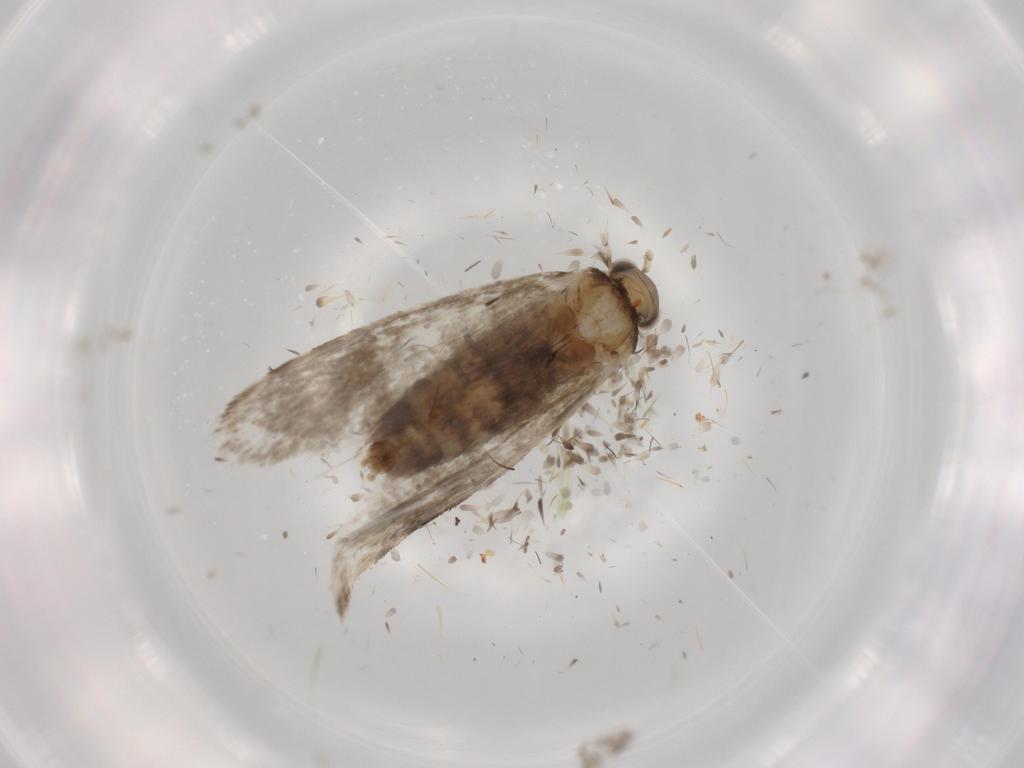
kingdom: Animalia
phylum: Arthropoda
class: Insecta
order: Lepidoptera
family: Tineidae
